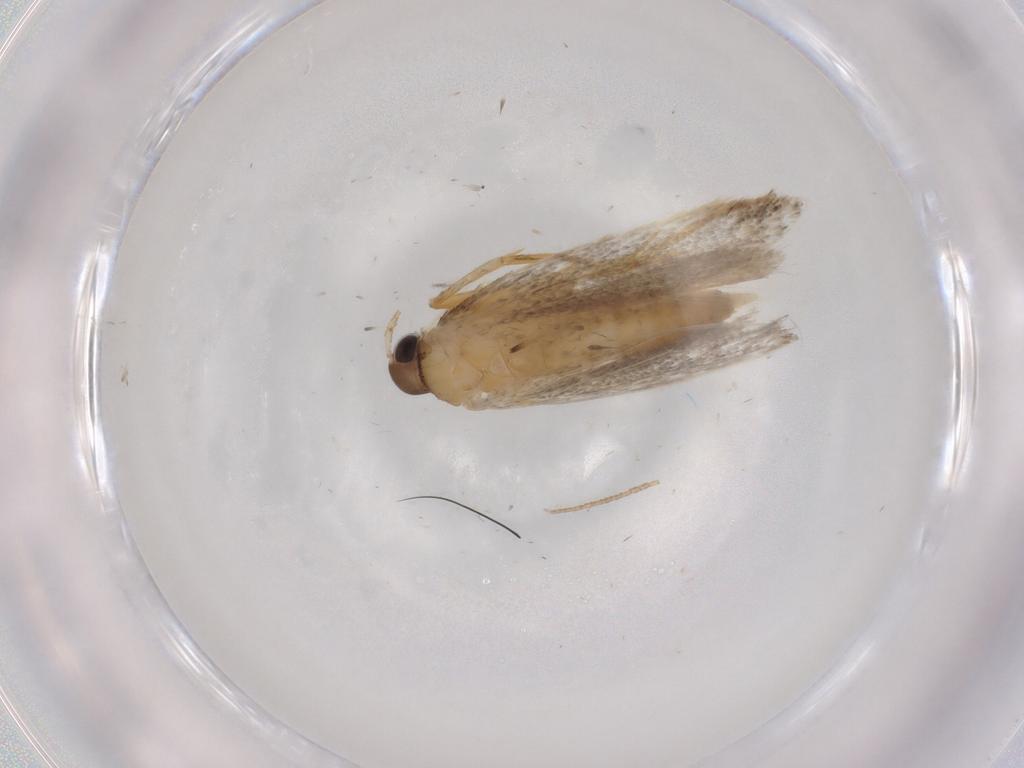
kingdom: Animalia
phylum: Arthropoda
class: Insecta
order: Lepidoptera
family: Autostichidae
